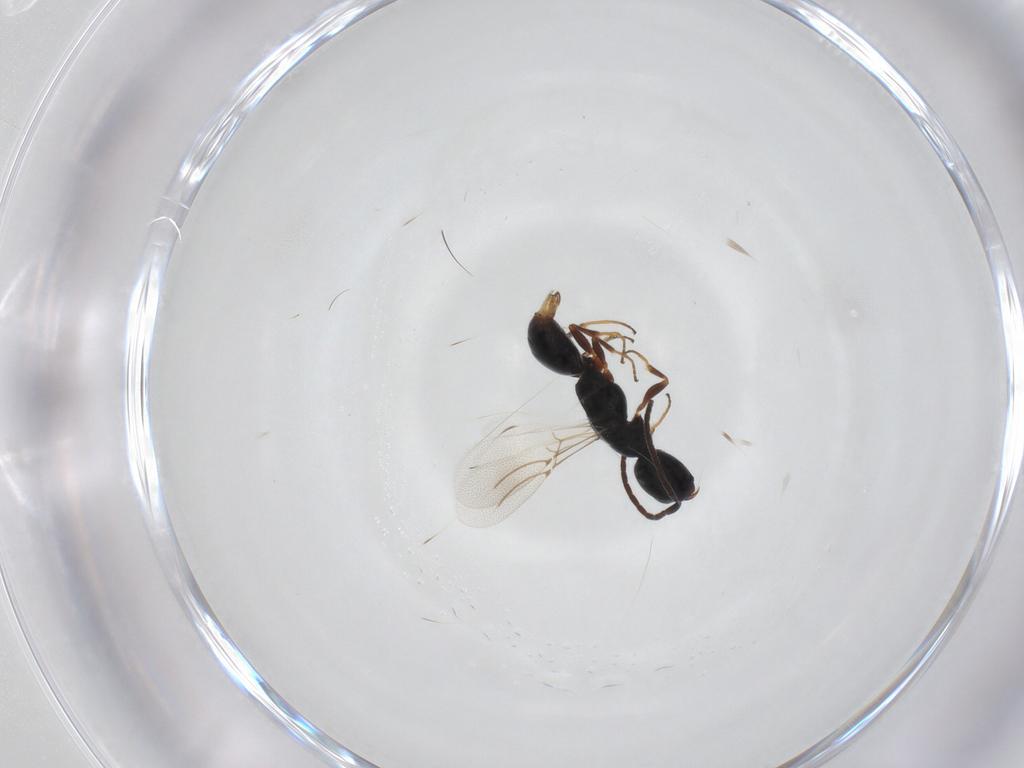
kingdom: Animalia
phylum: Arthropoda
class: Insecta
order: Hymenoptera
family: Bethylidae
